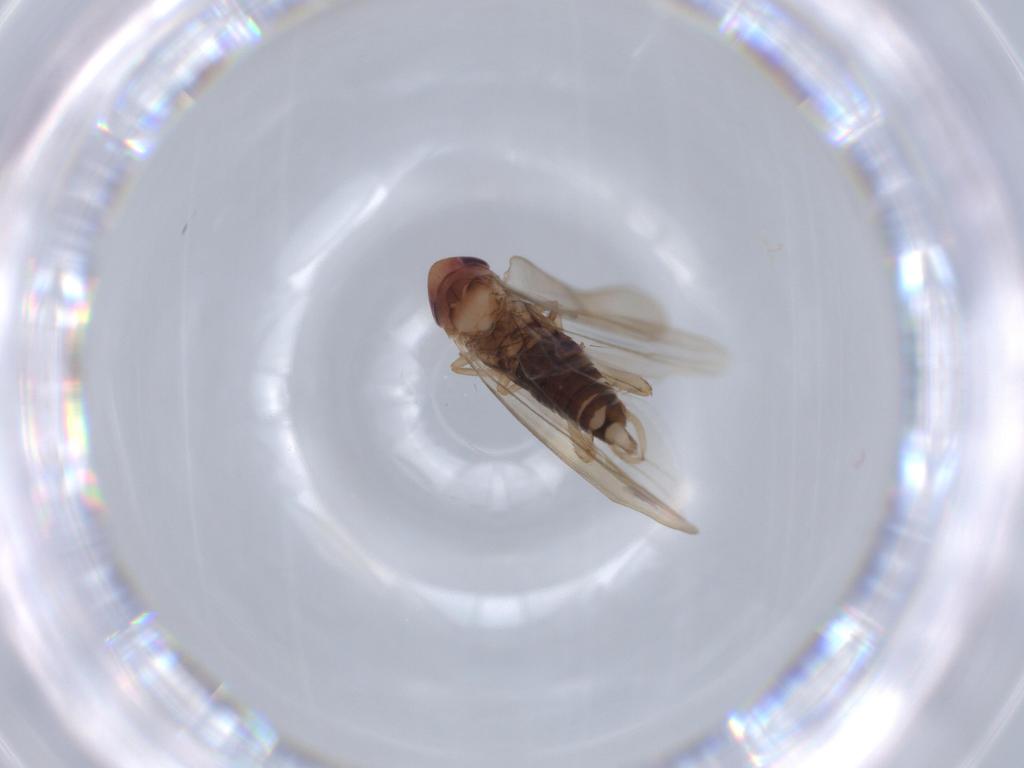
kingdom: Animalia
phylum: Arthropoda
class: Insecta
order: Hemiptera
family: Cicadellidae
